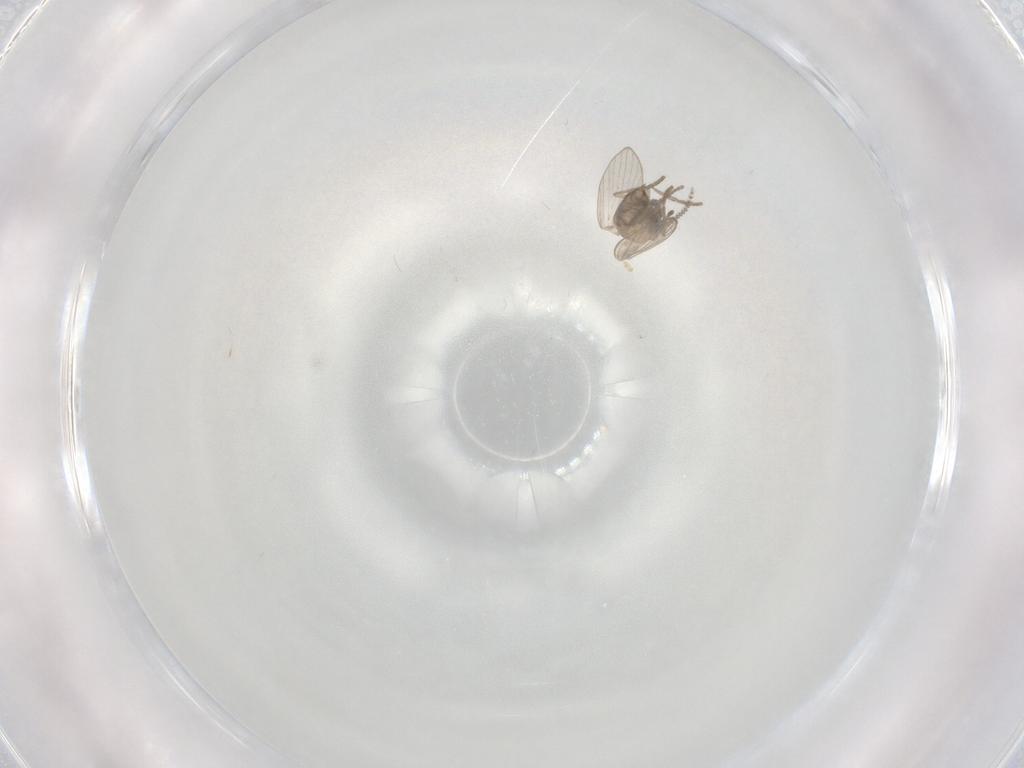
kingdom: Animalia
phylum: Arthropoda
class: Insecta
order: Diptera
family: Psychodidae
